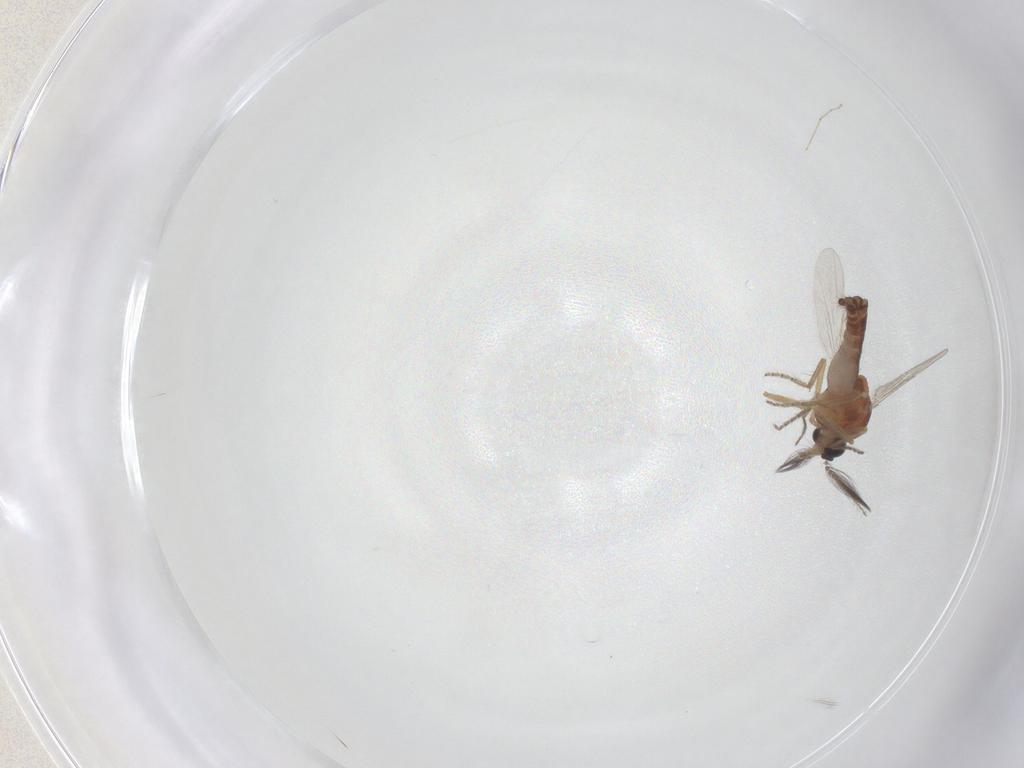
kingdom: Animalia
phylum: Arthropoda
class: Insecta
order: Diptera
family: Ceratopogonidae
